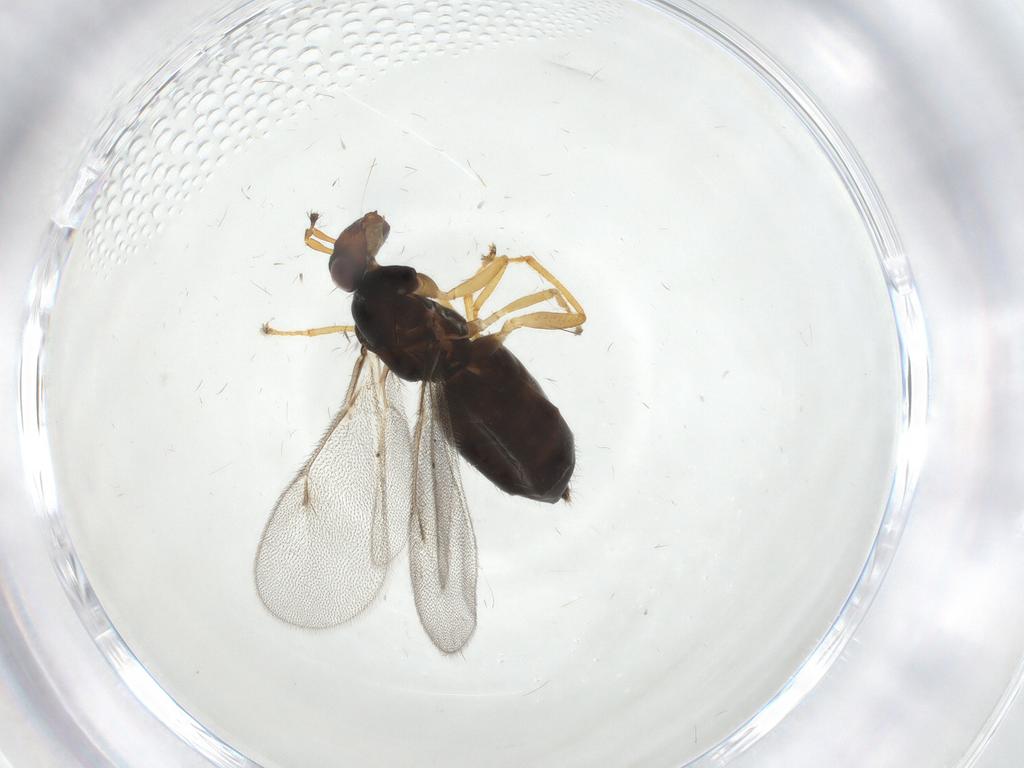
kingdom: Animalia
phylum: Arthropoda
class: Insecta
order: Hymenoptera
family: Eulophidae
